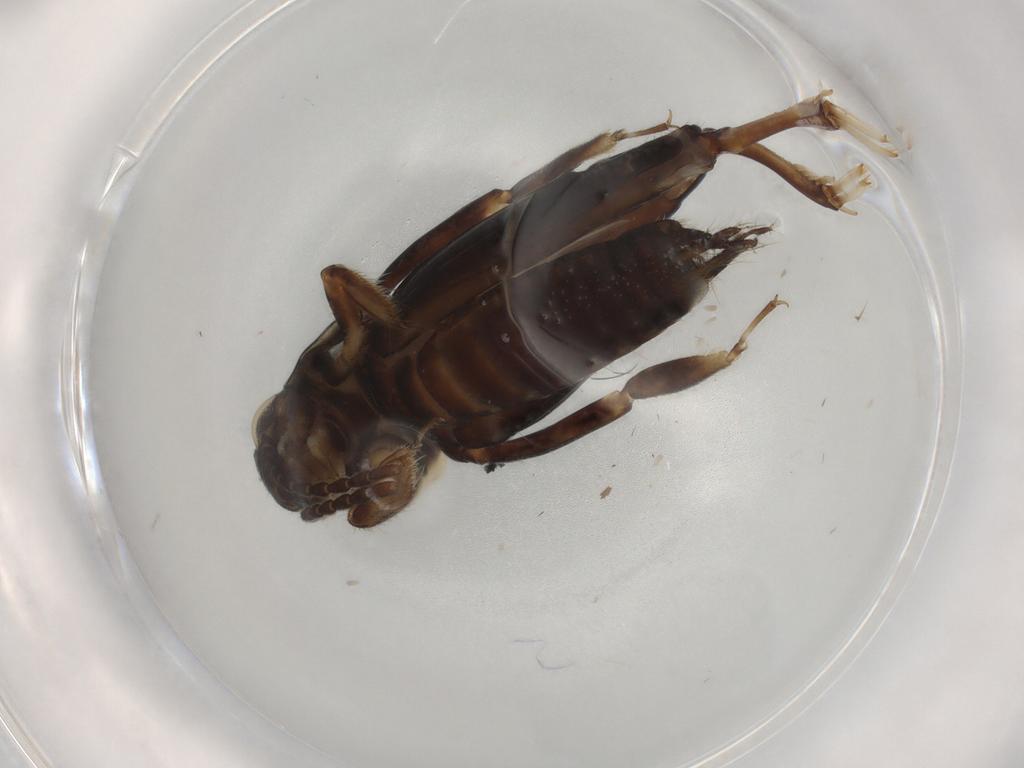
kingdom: Animalia
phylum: Arthropoda
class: Insecta
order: Orthoptera
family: Tridactylidae
